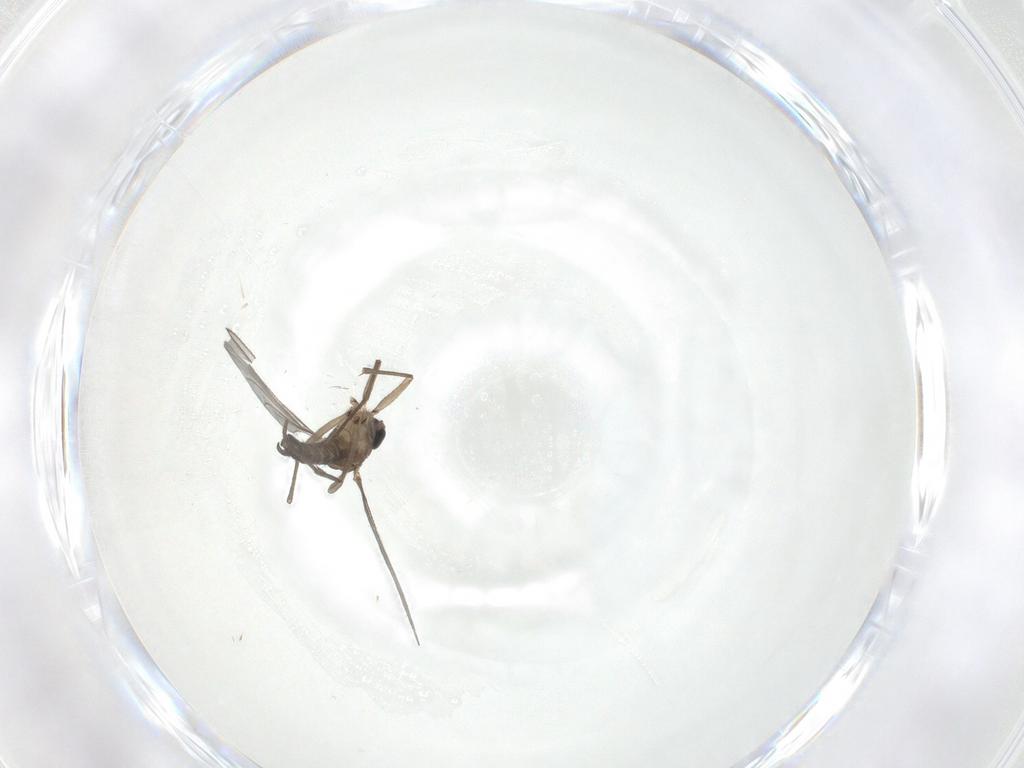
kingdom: Animalia
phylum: Arthropoda
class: Insecta
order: Diptera
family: Sciaridae
